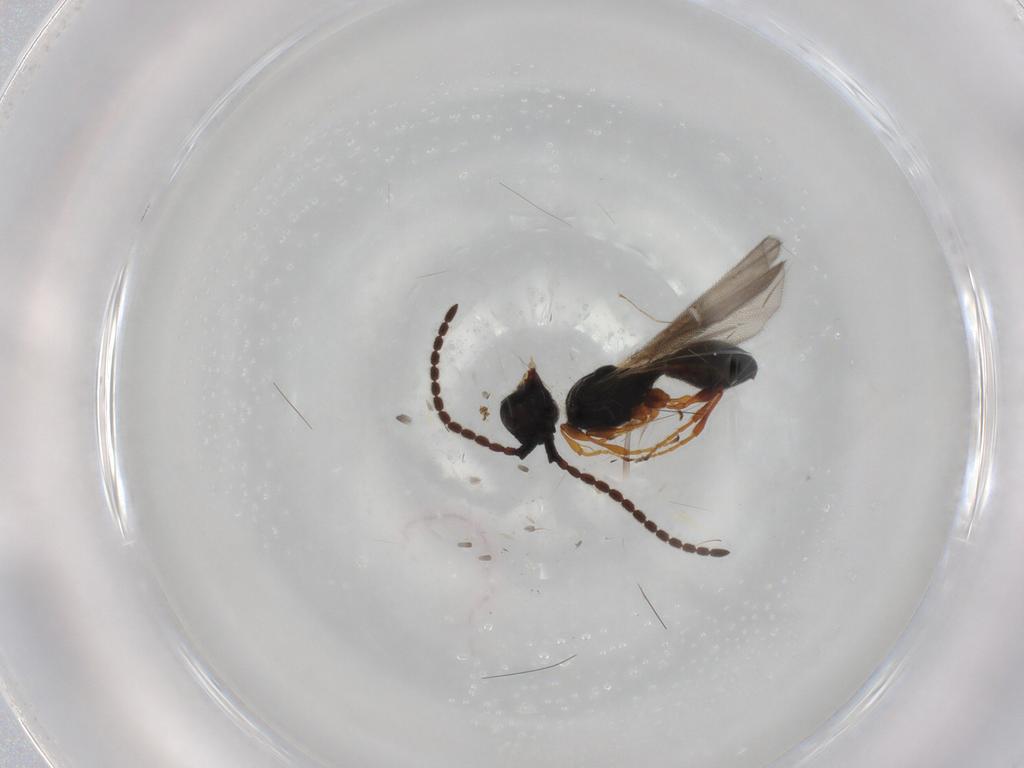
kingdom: Animalia
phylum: Arthropoda
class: Insecta
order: Hymenoptera
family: Diapriidae
